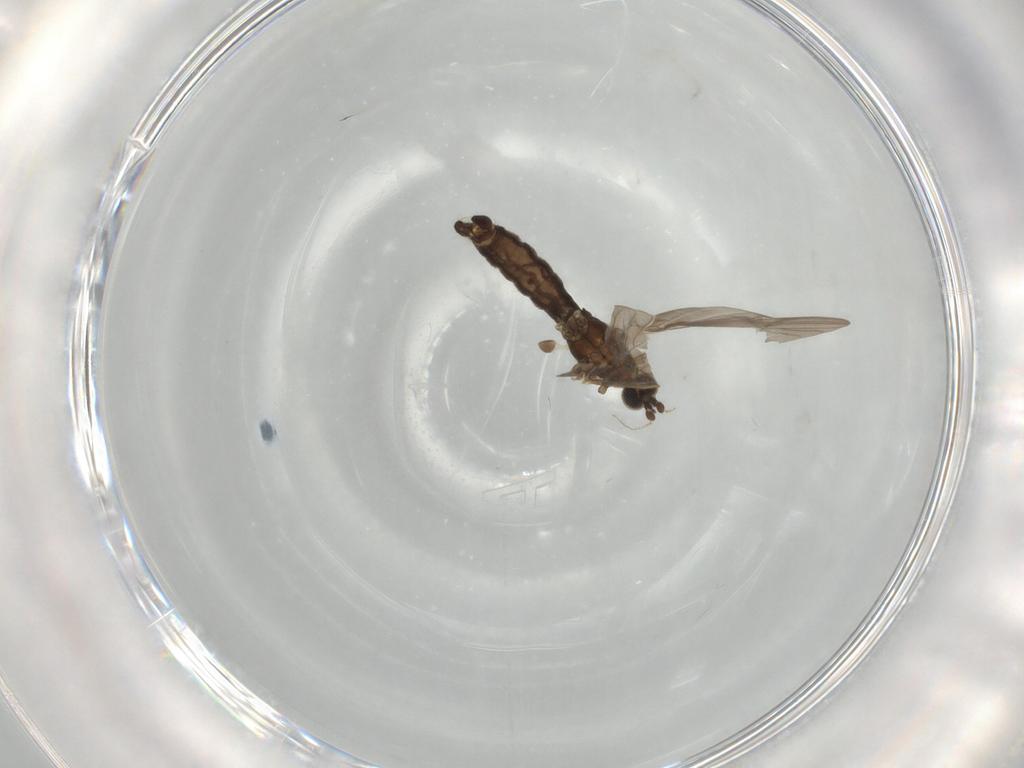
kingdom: Animalia
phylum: Arthropoda
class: Insecta
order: Diptera
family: Limoniidae
